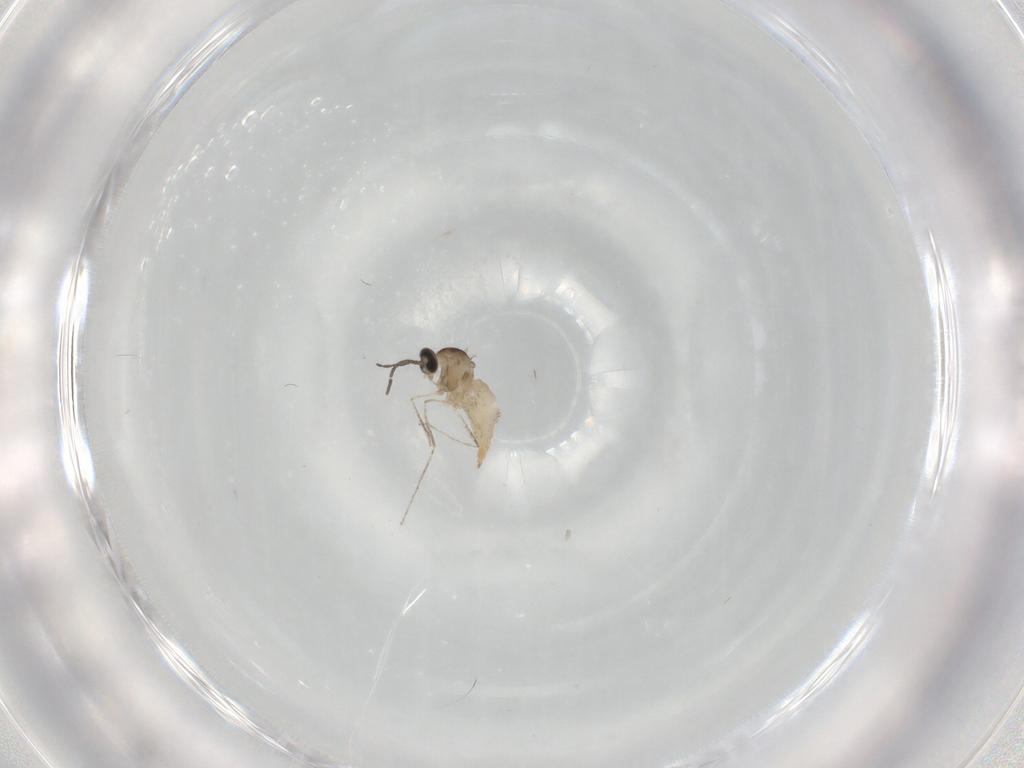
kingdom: Animalia
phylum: Arthropoda
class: Insecta
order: Diptera
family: Cecidomyiidae
